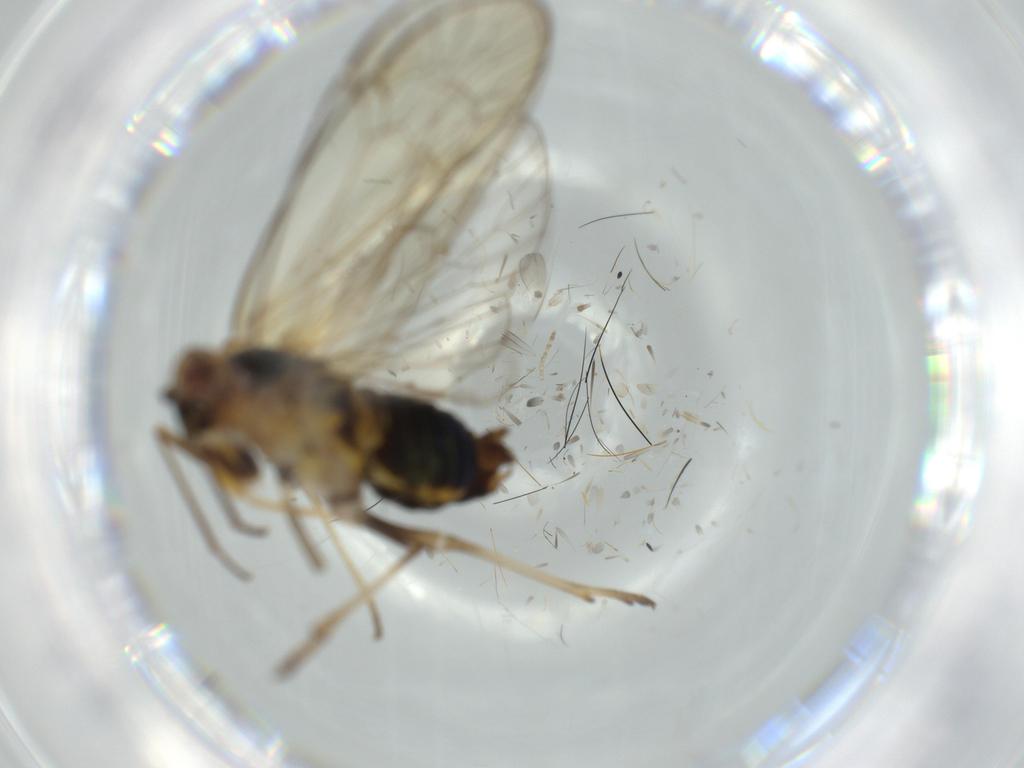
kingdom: Animalia
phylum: Arthropoda
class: Insecta
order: Hemiptera
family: Kinnaridae
